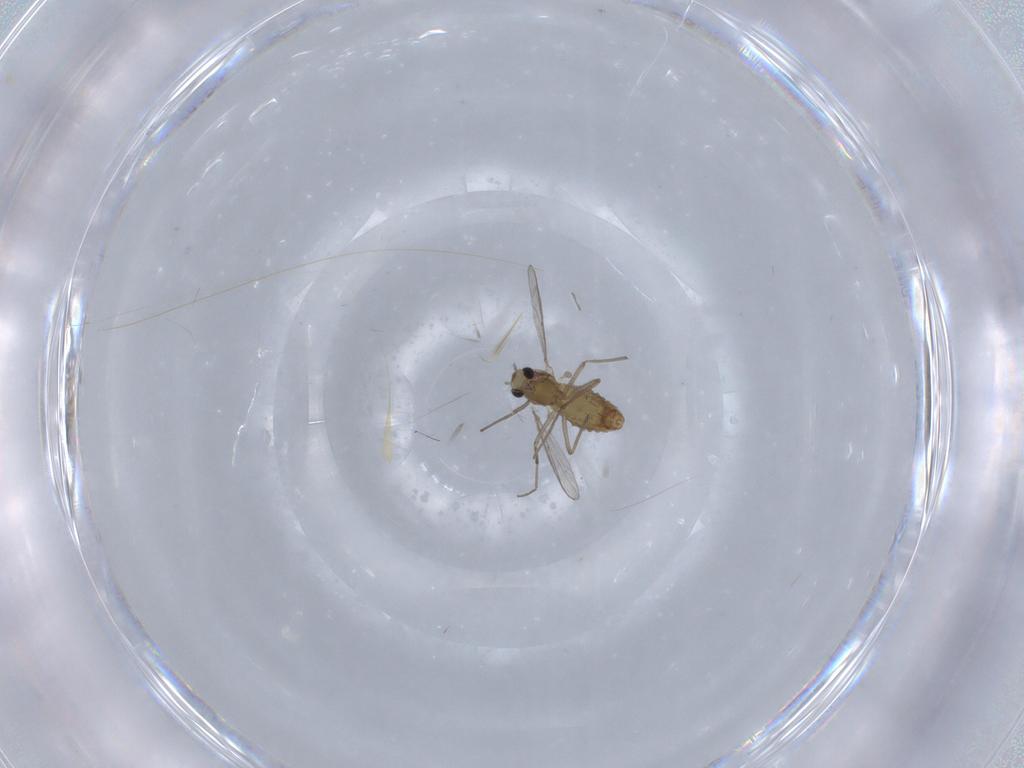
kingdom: Animalia
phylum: Arthropoda
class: Insecta
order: Diptera
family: Chironomidae
